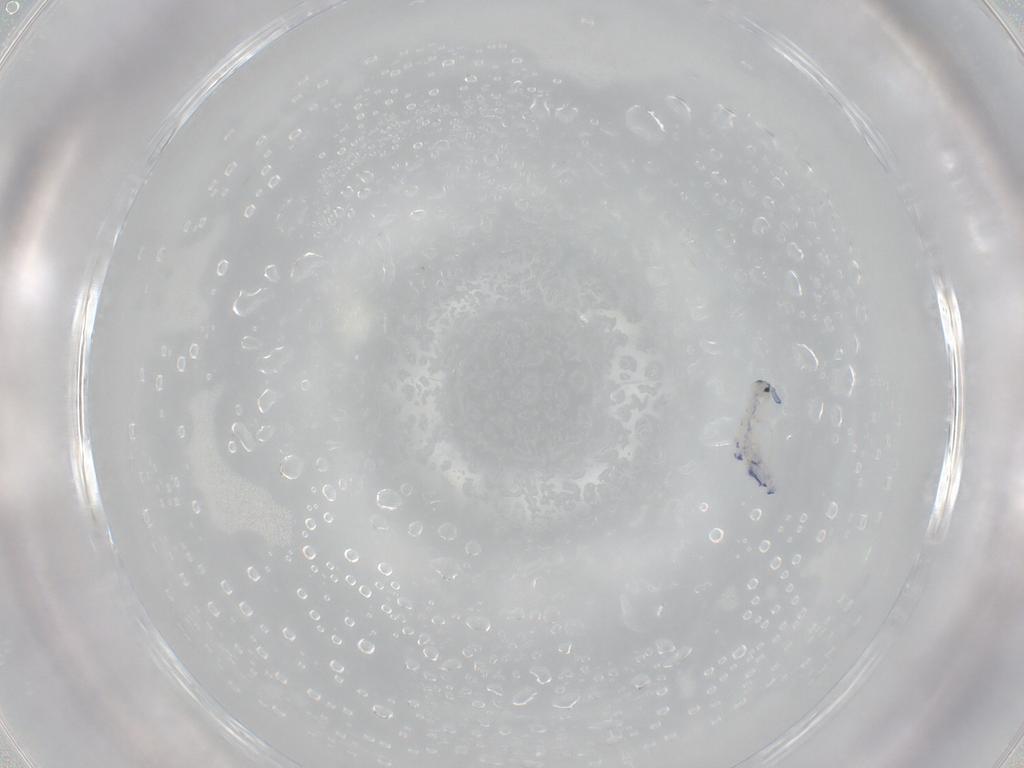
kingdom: Animalia
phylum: Arthropoda
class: Collembola
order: Entomobryomorpha
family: Entomobryidae
